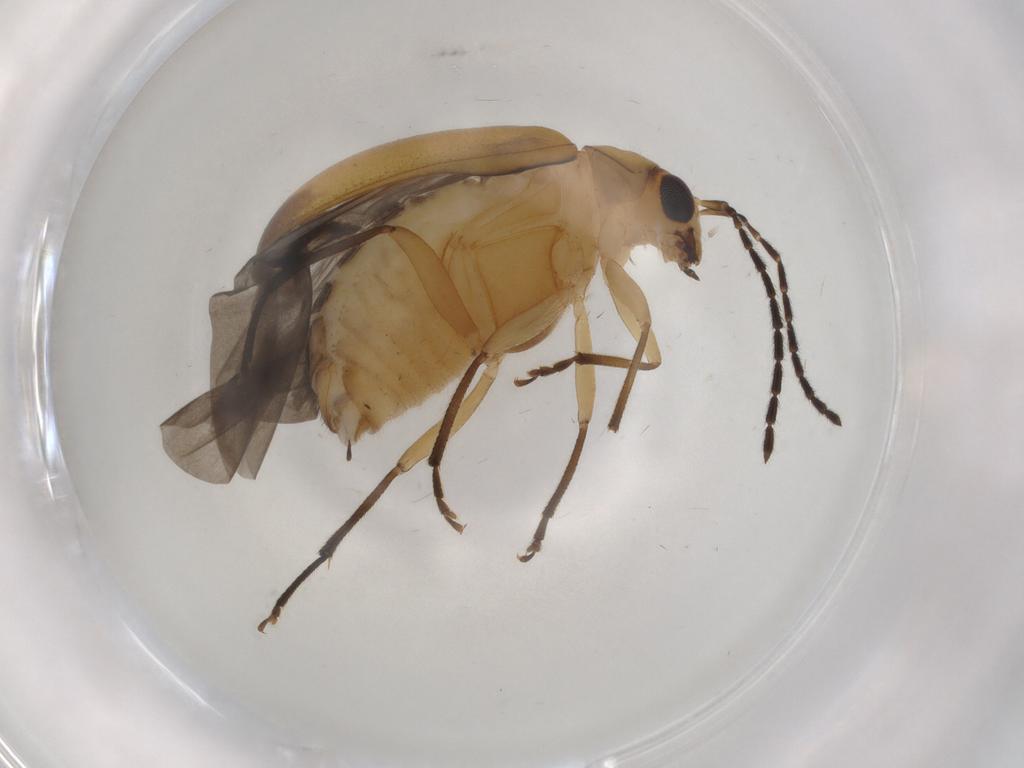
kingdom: Animalia
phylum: Arthropoda
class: Insecta
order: Coleoptera
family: Chrysomelidae
